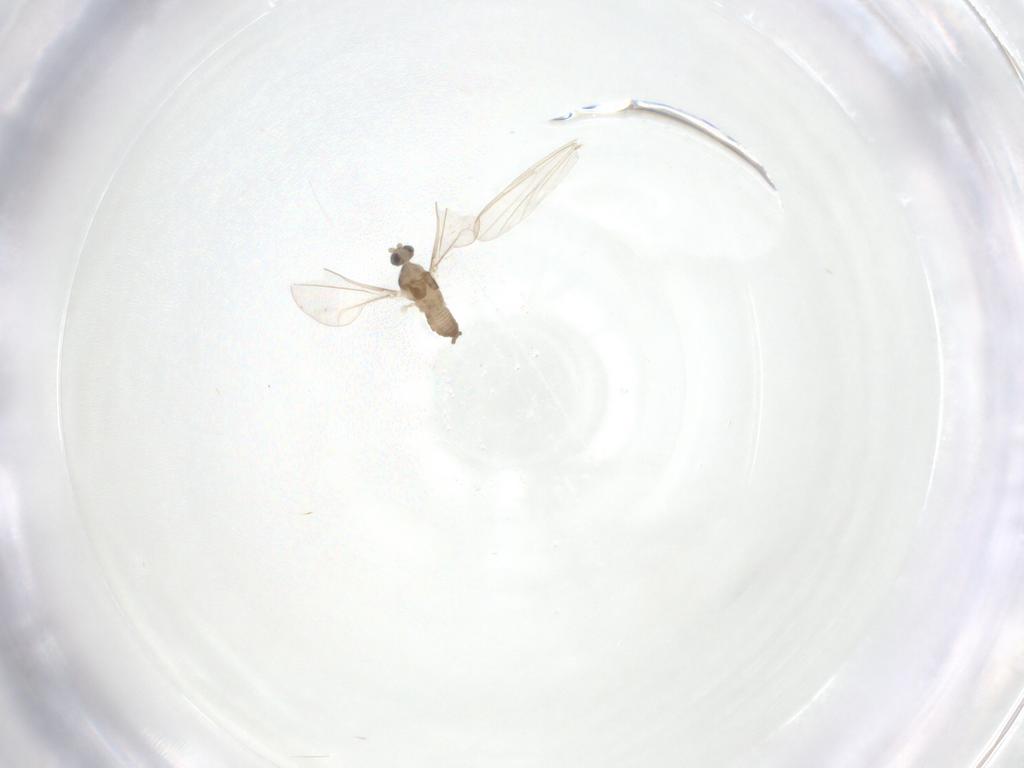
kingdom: Animalia
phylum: Arthropoda
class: Insecta
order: Diptera
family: Cecidomyiidae
